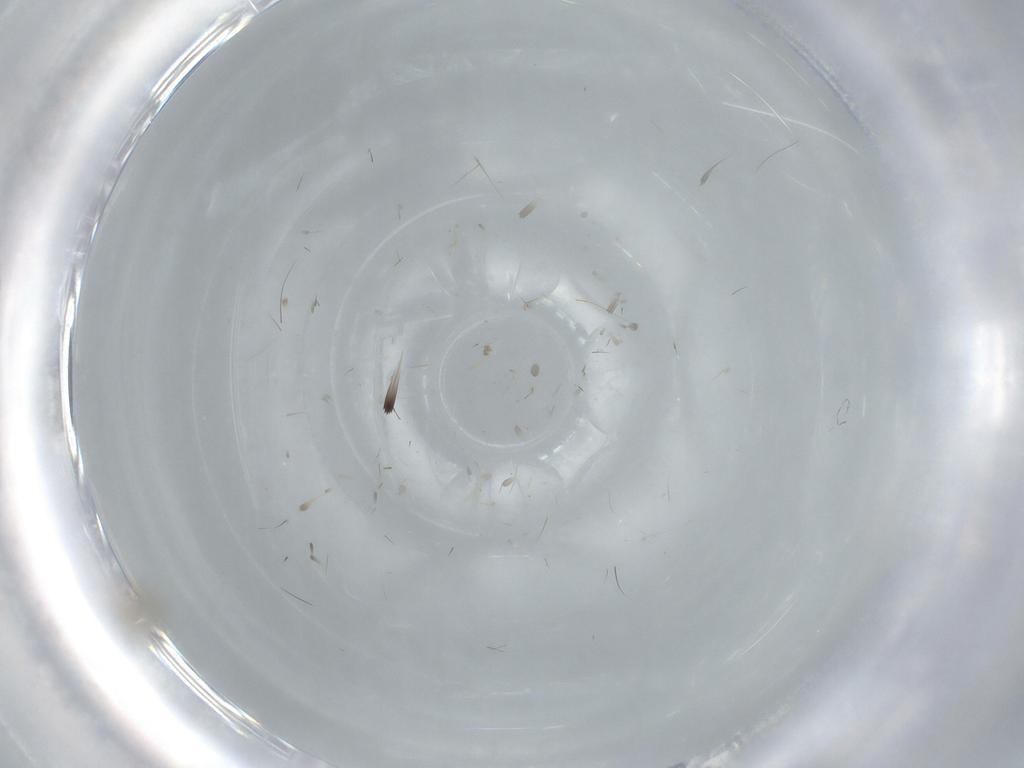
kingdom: Animalia
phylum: Arthropoda
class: Insecta
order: Hymenoptera
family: Signiphoridae
